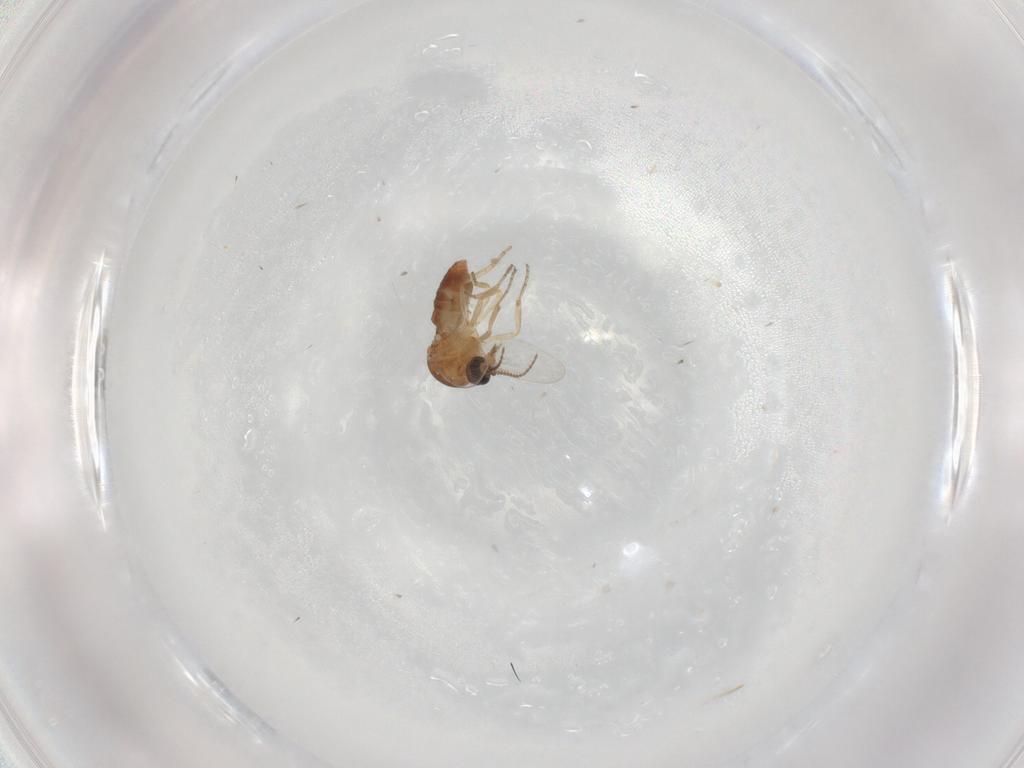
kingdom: Animalia
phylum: Arthropoda
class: Insecta
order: Diptera
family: Ceratopogonidae
